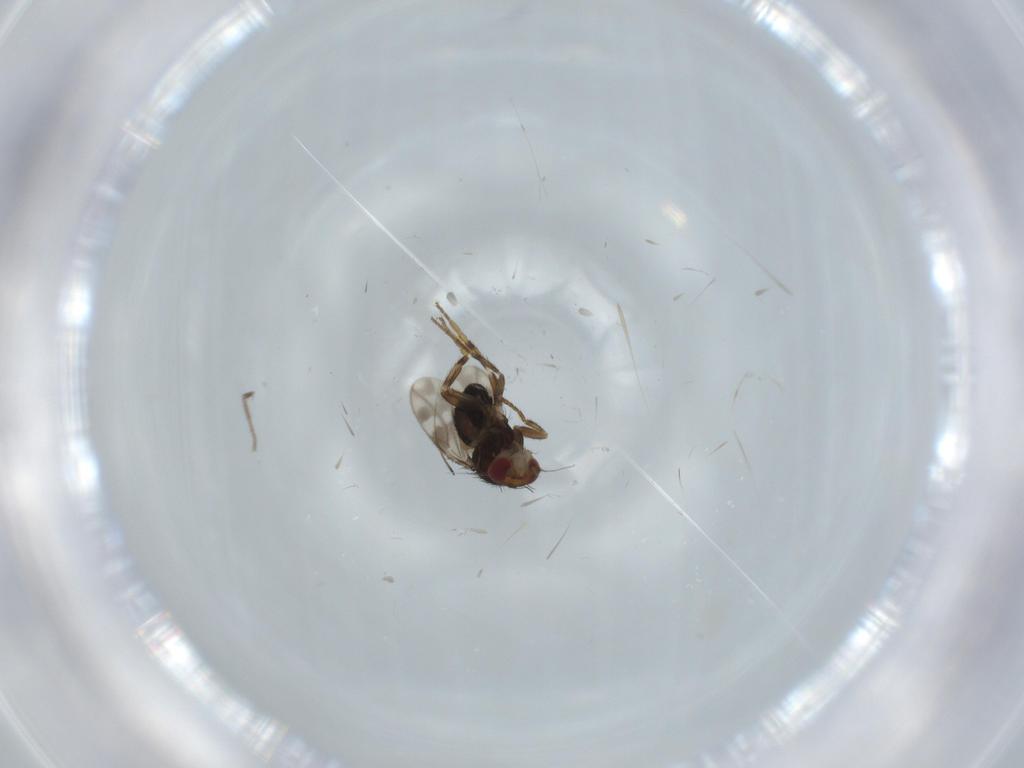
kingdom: Animalia
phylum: Arthropoda
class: Insecta
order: Diptera
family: Sphaeroceridae
